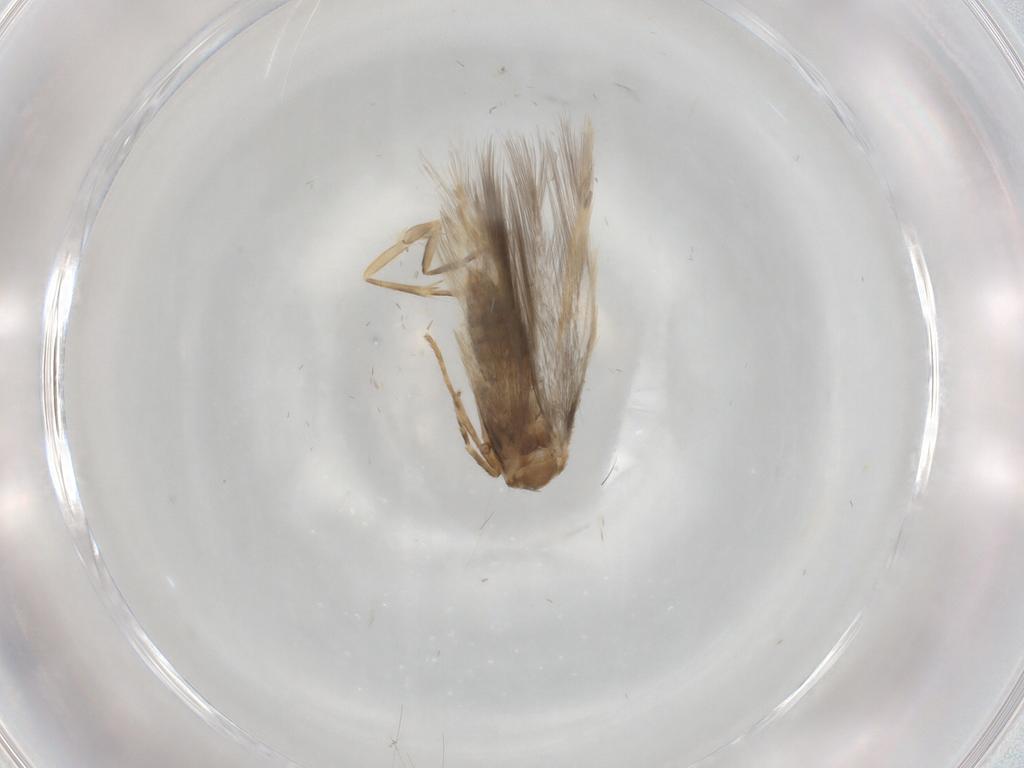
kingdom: Animalia
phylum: Arthropoda
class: Insecta
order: Lepidoptera
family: Nepticulidae
